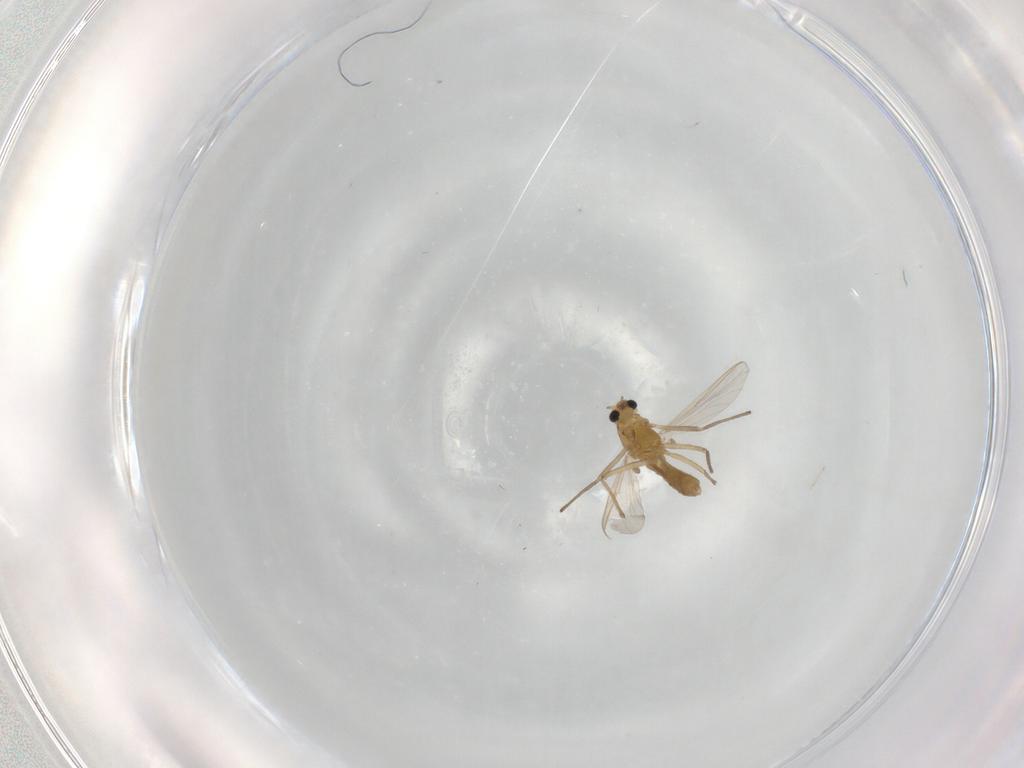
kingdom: Animalia
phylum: Arthropoda
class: Insecta
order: Diptera
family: Chironomidae
